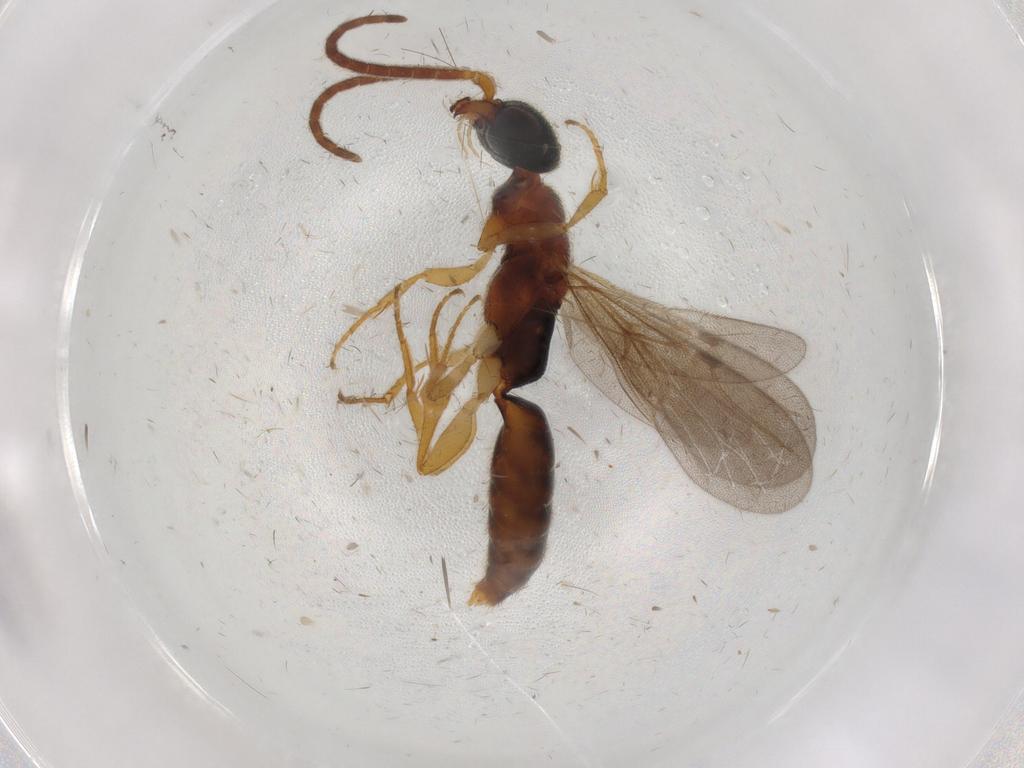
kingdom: Animalia
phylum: Arthropoda
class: Insecta
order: Hymenoptera
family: Bethylidae
